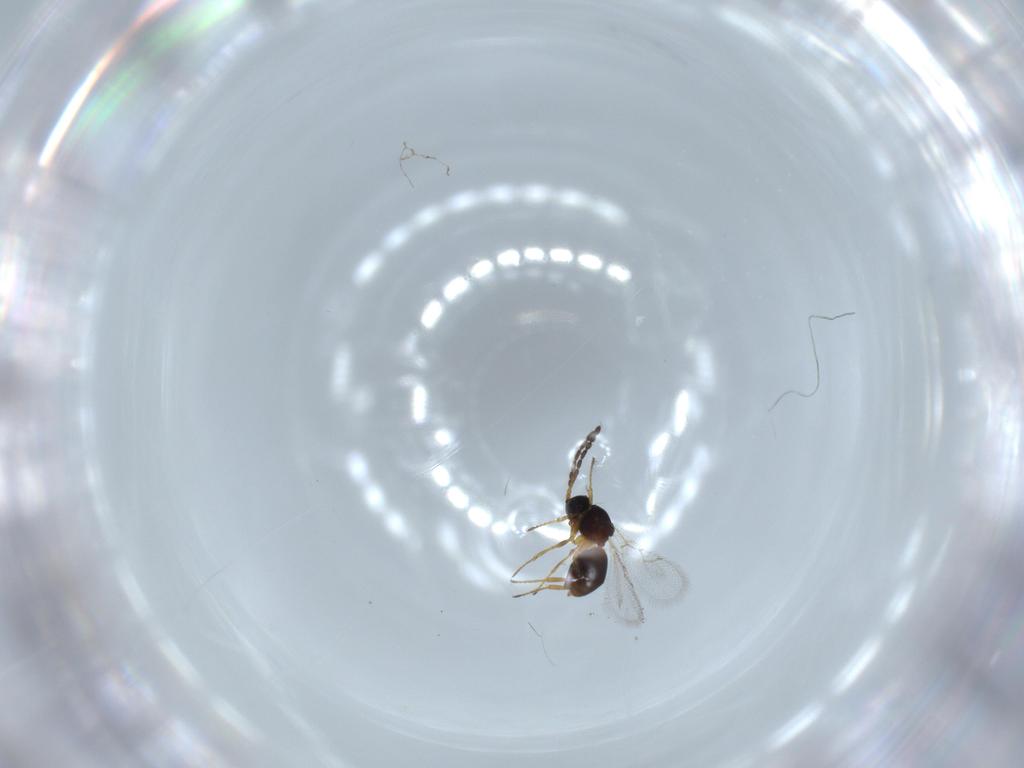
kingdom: Animalia
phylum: Arthropoda
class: Insecta
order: Hymenoptera
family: Figitidae
